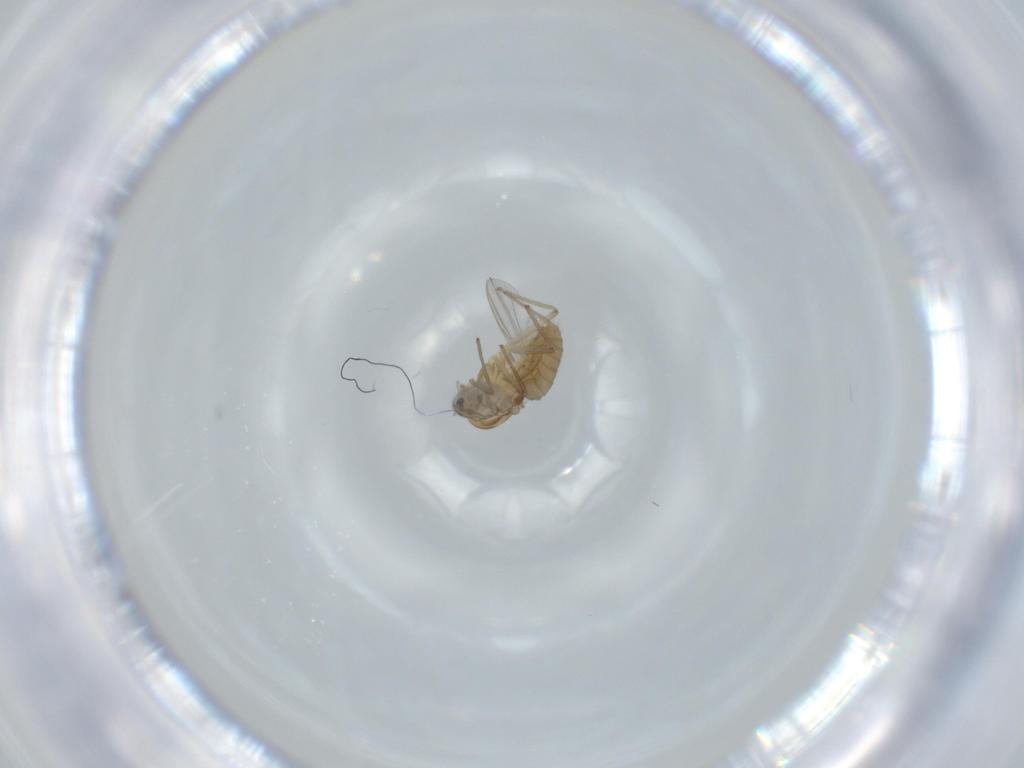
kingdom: Animalia
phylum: Arthropoda
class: Insecta
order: Diptera
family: Chironomidae
